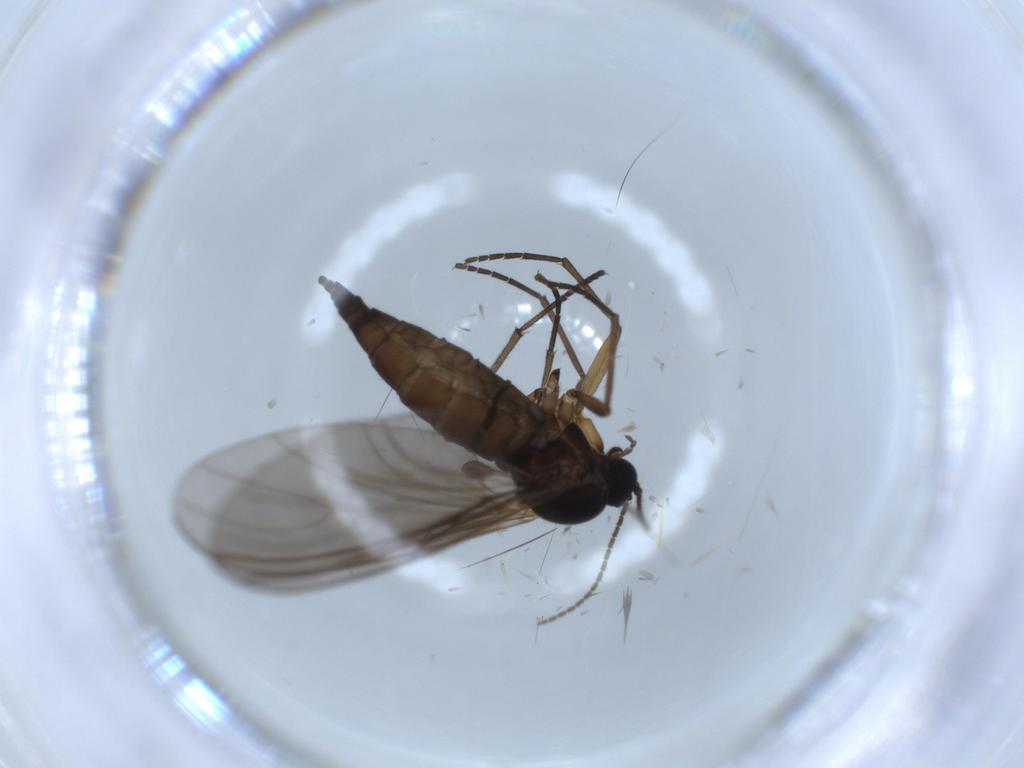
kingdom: Animalia
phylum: Arthropoda
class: Insecta
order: Diptera
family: Sciaridae
